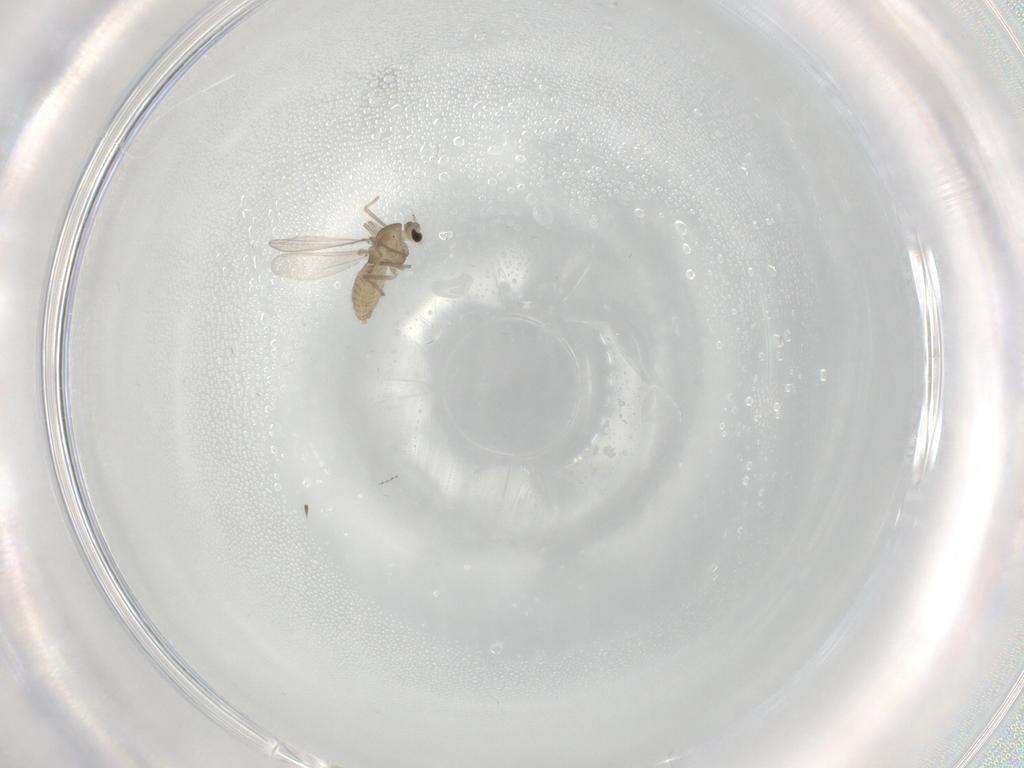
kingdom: Animalia
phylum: Arthropoda
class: Insecta
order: Diptera
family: Chironomidae
